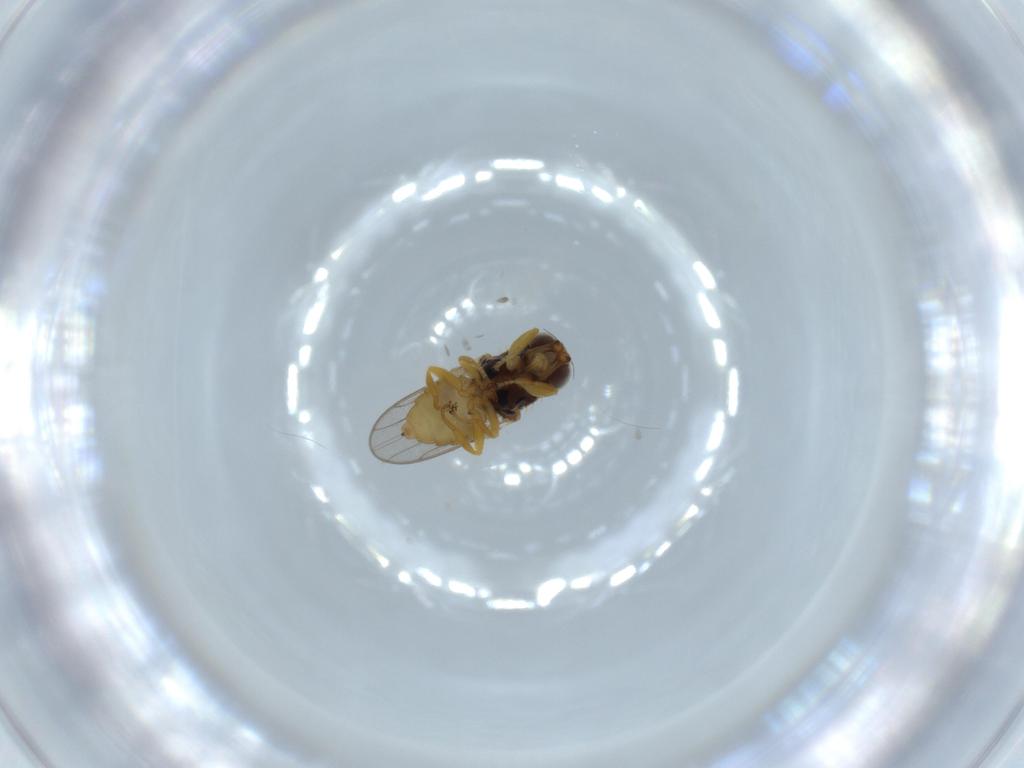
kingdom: Animalia
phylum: Arthropoda
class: Insecta
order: Diptera
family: Chloropidae
